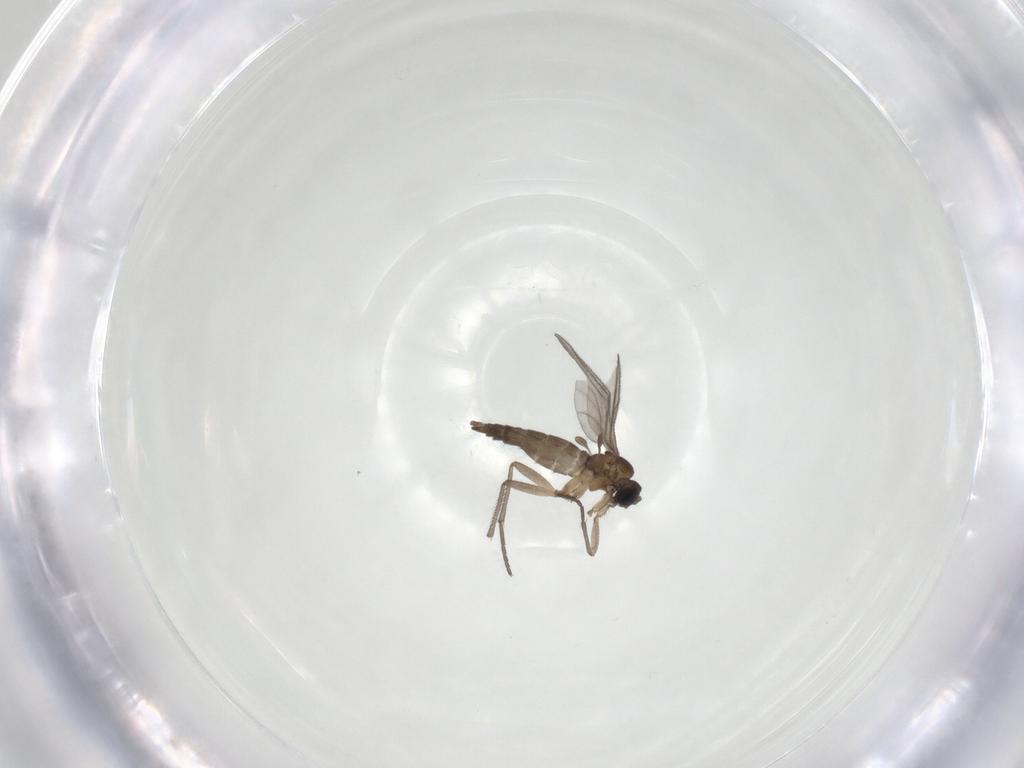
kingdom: Animalia
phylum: Arthropoda
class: Insecta
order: Diptera
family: Sciaridae
